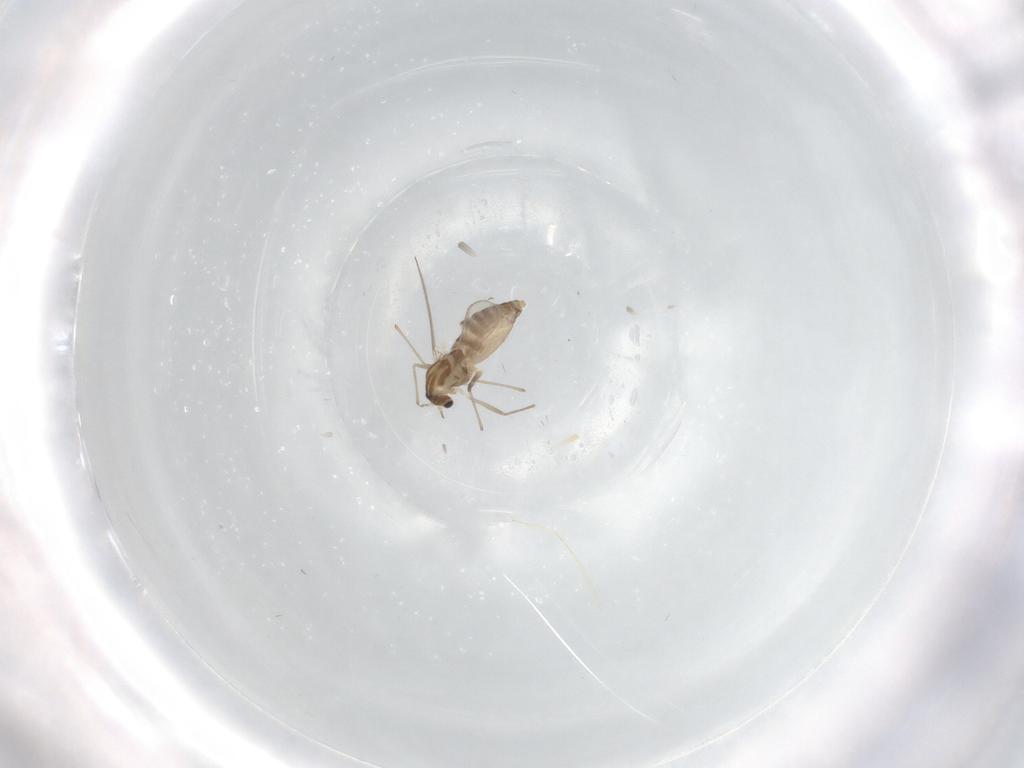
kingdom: Animalia
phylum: Arthropoda
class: Insecta
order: Diptera
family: Chironomidae
